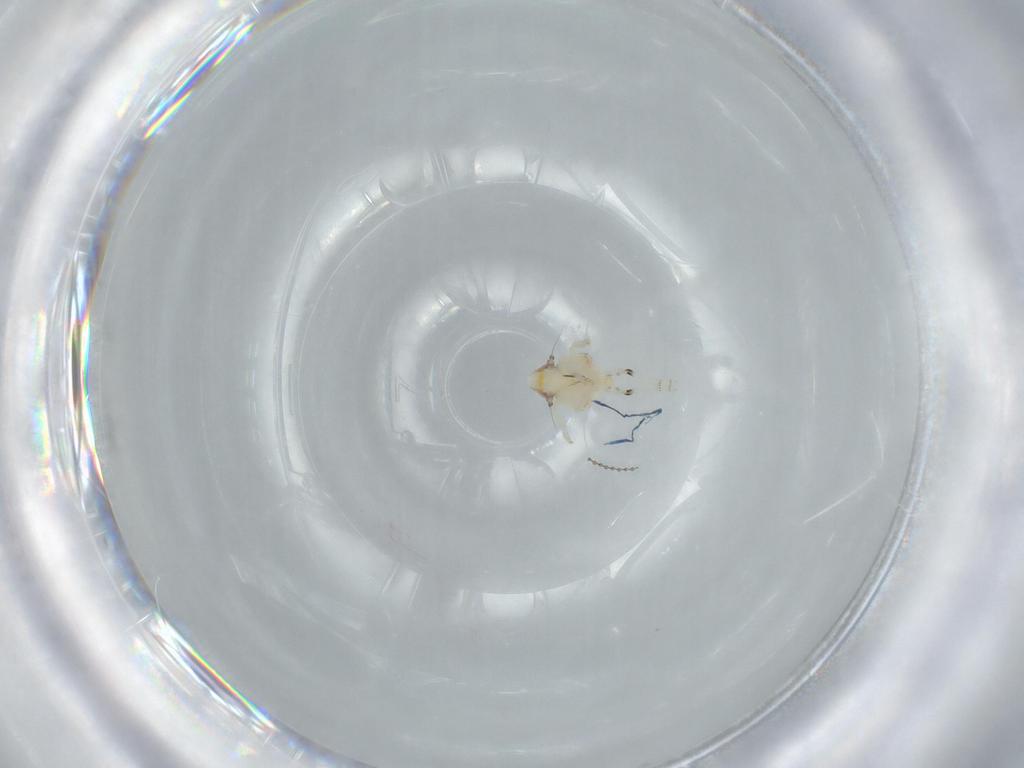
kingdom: Animalia
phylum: Arthropoda
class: Insecta
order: Hemiptera
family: Nogodinidae
